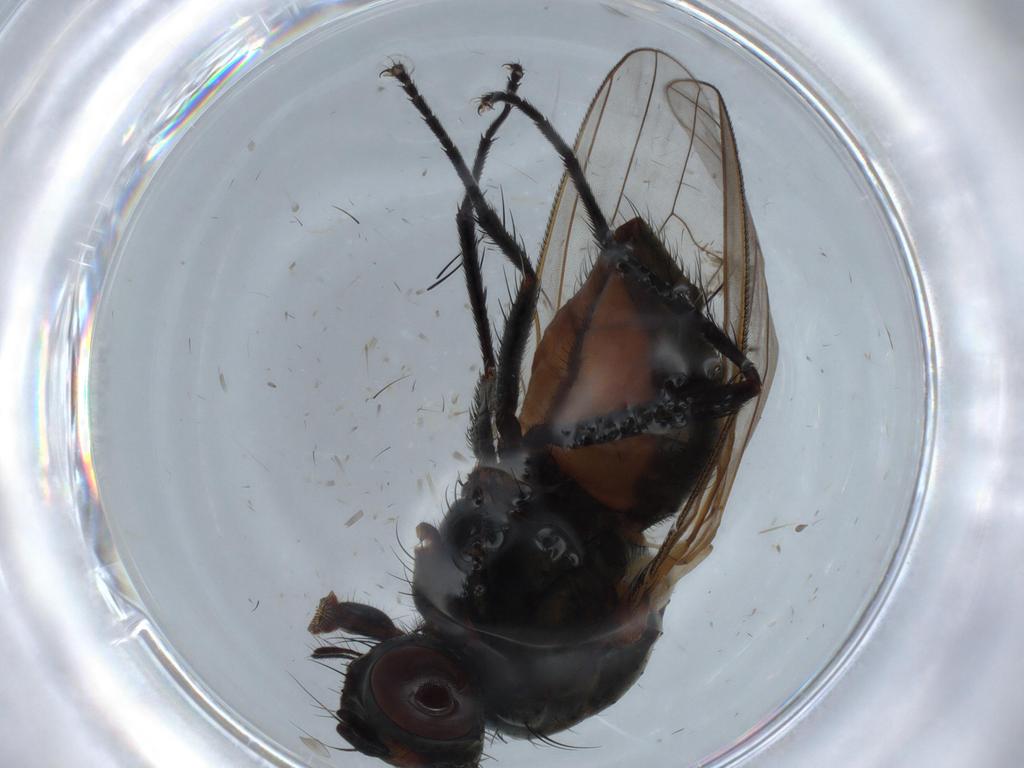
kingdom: Animalia
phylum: Arthropoda
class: Insecta
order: Diptera
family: Anthomyiidae
